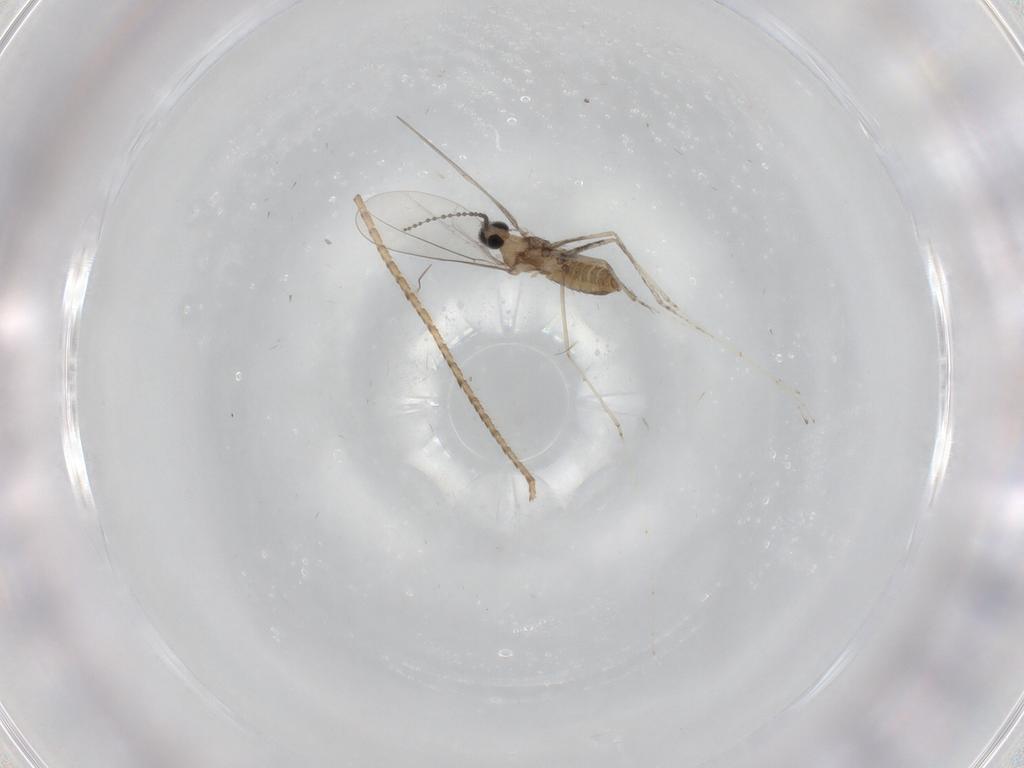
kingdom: Animalia
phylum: Arthropoda
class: Insecta
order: Diptera
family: Cecidomyiidae
